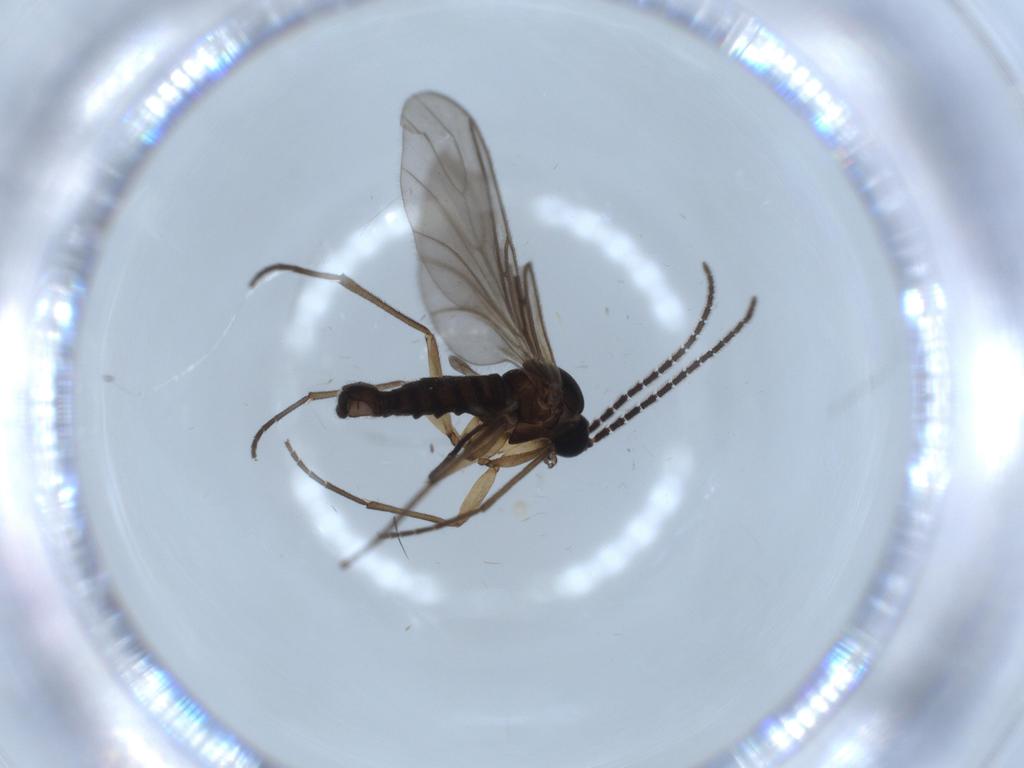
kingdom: Animalia
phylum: Arthropoda
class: Insecta
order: Diptera
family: Sciaridae
